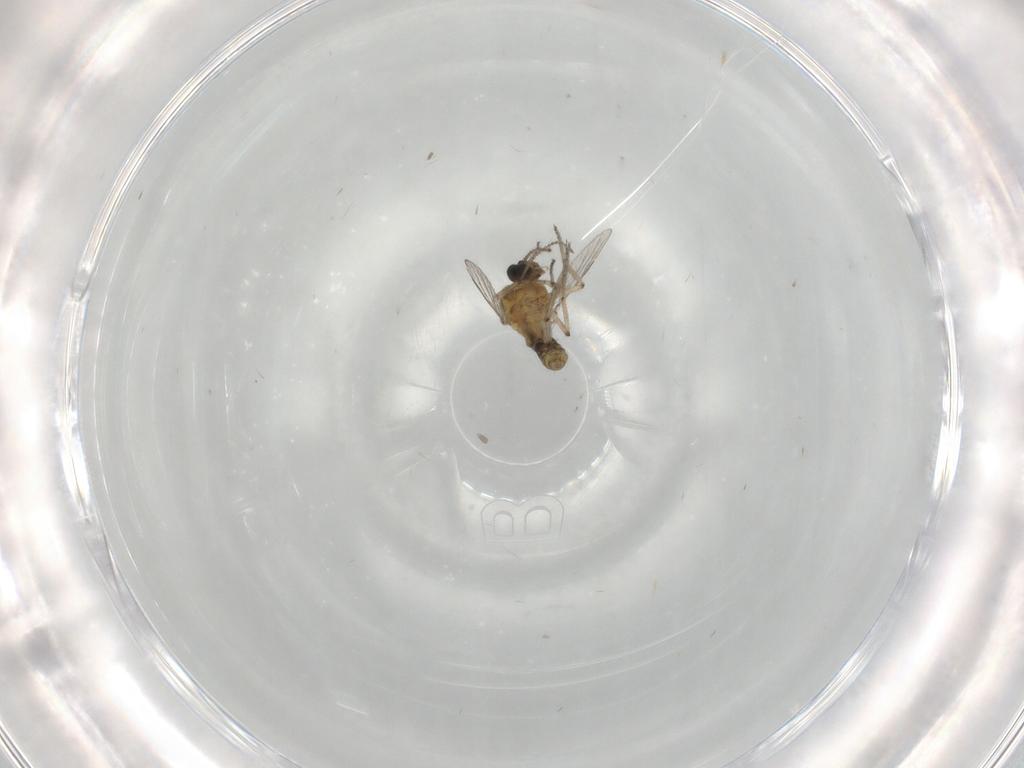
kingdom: Animalia
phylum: Arthropoda
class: Insecta
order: Diptera
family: Ceratopogonidae
